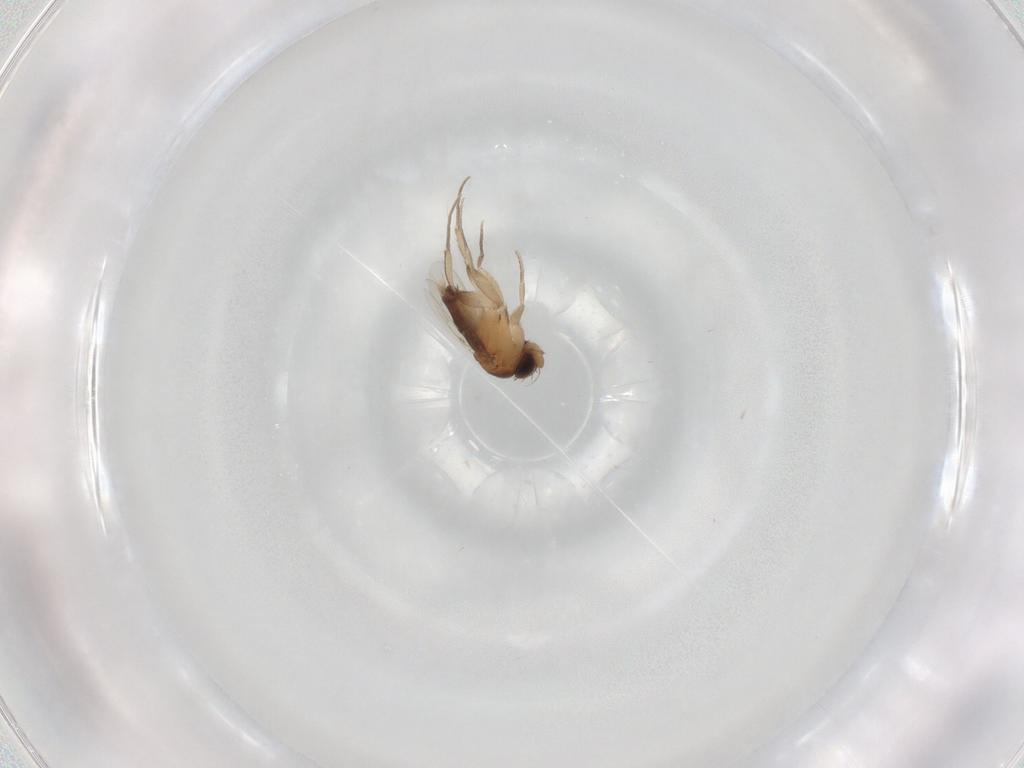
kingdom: Animalia
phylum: Arthropoda
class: Insecta
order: Diptera
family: Phoridae
